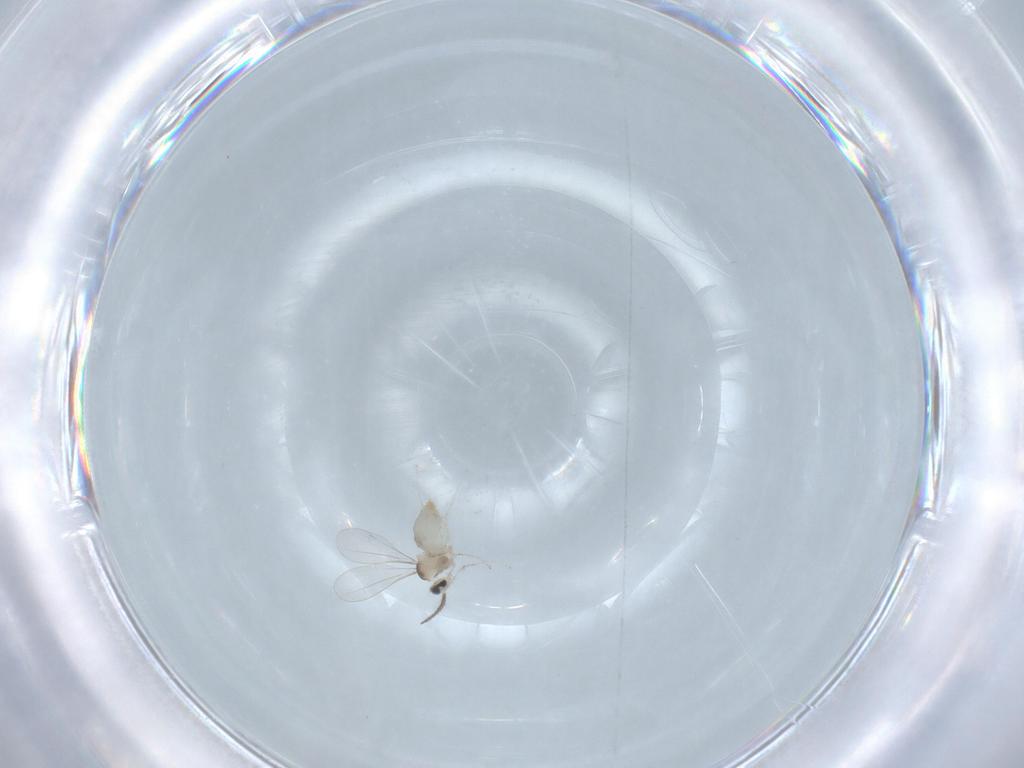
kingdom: Animalia
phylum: Arthropoda
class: Insecta
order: Diptera
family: Cecidomyiidae
